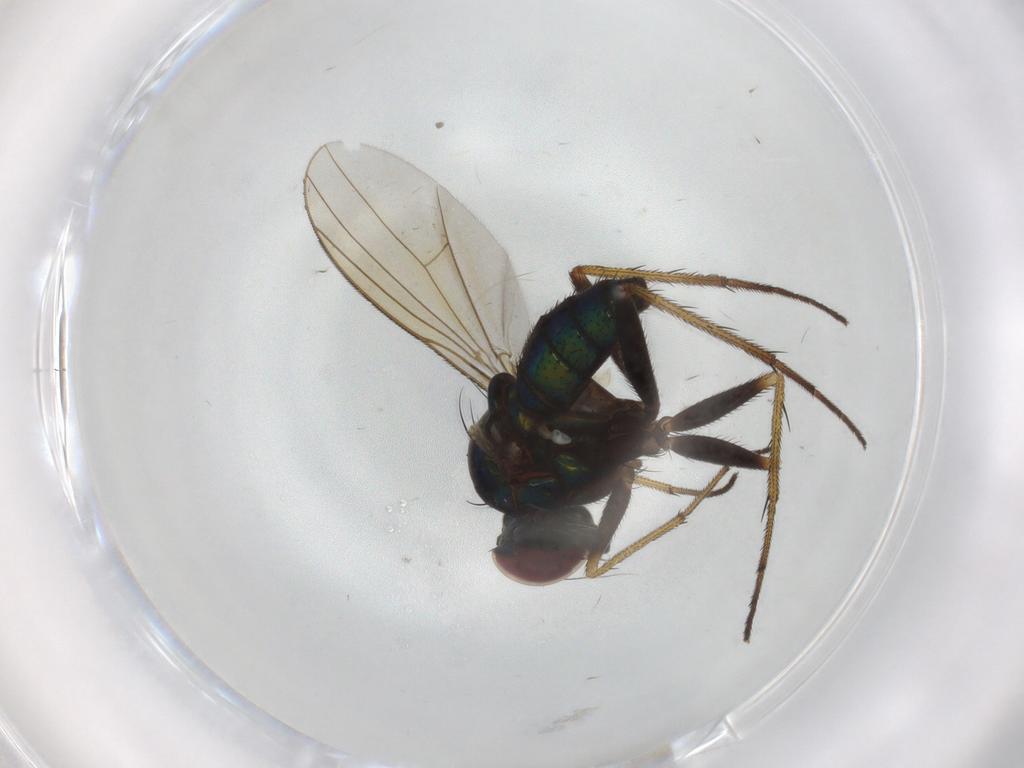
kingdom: Animalia
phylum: Arthropoda
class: Insecta
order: Diptera
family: Dolichopodidae
